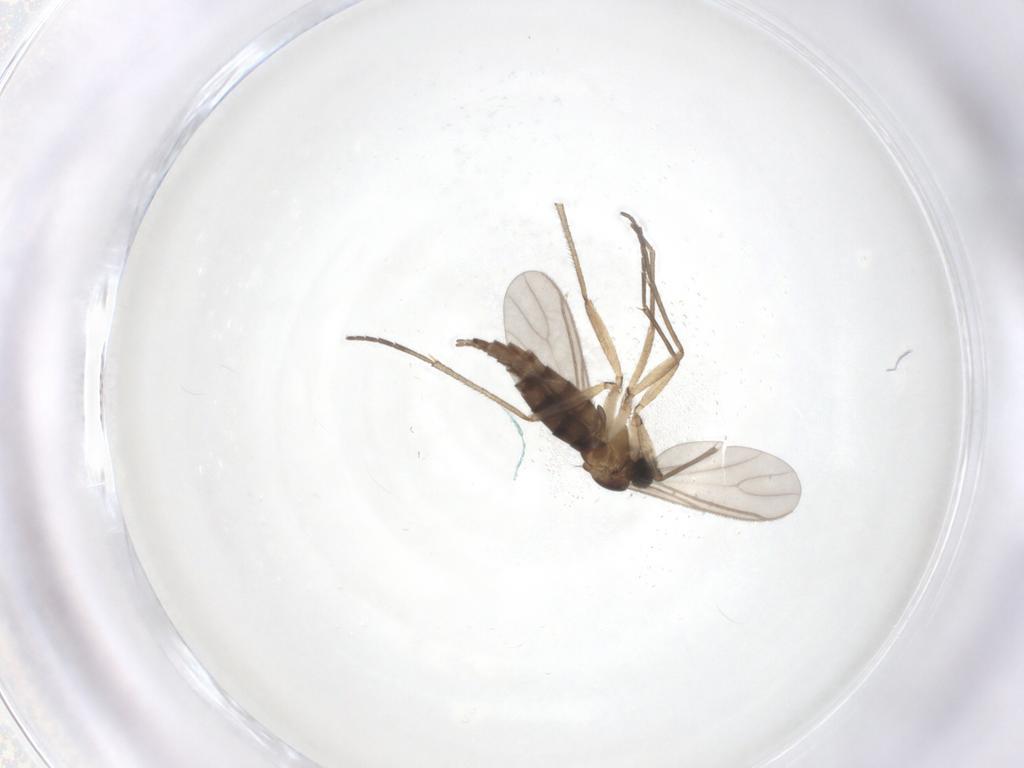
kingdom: Animalia
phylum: Arthropoda
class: Insecta
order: Diptera
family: Sciaridae
